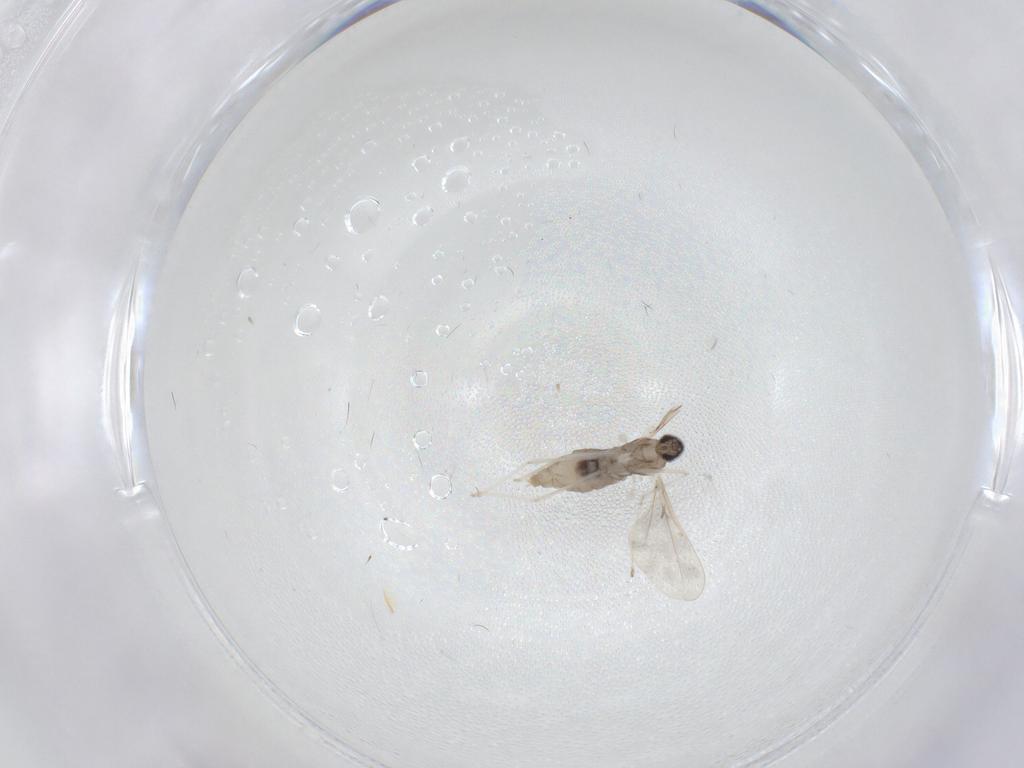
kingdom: Animalia
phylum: Arthropoda
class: Insecta
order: Diptera
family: Cecidomyiidae
